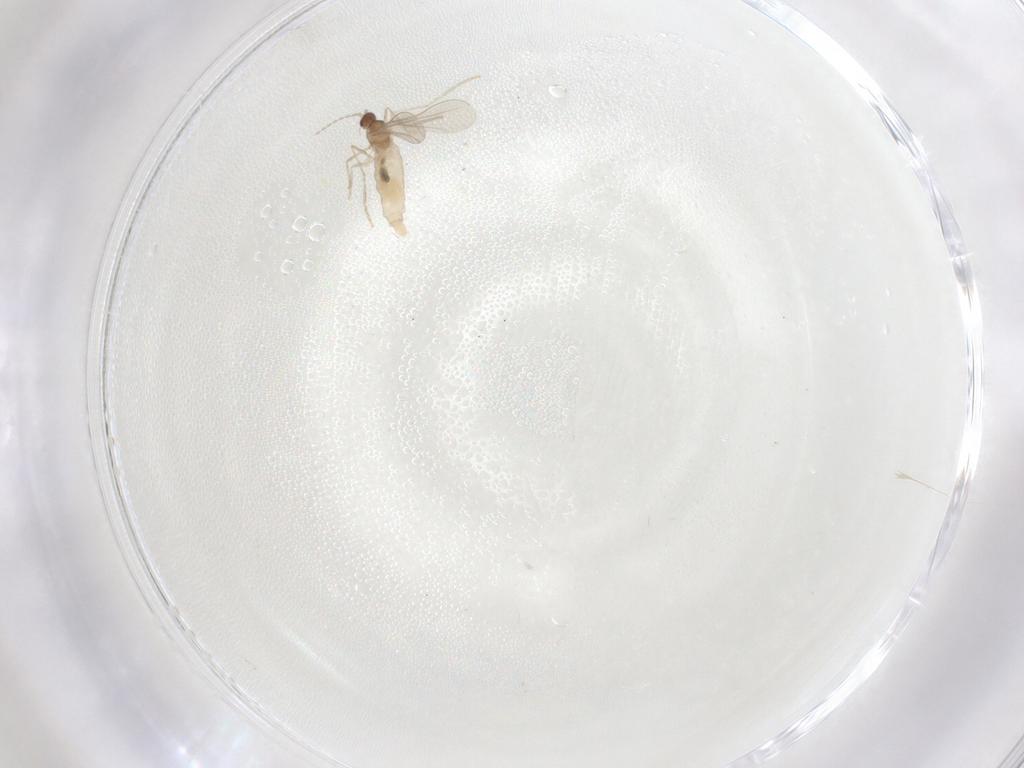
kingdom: Animalia
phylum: Arthropoda
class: Insecta
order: Diptera
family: Cecidomyiidae
